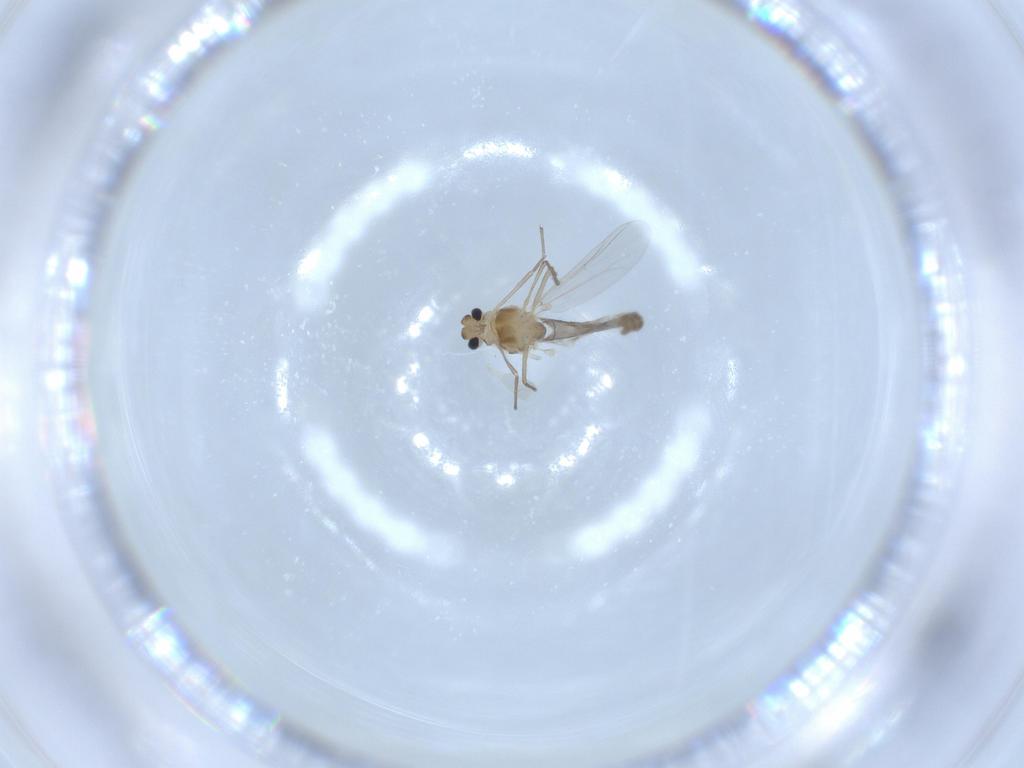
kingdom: Animalia
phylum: Arthropoda
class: Insecta
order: Diptera
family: Chironomidae
